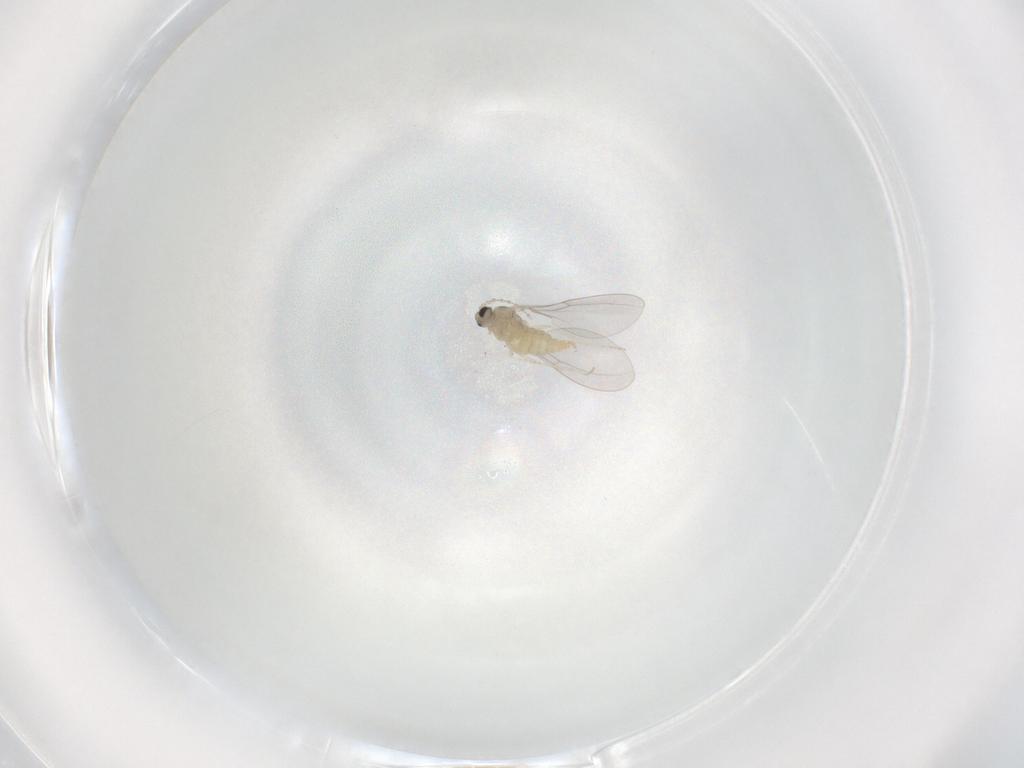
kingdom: Animalia
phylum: Arthropoda
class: Insecta
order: Diptera
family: Cecidomyiidae
